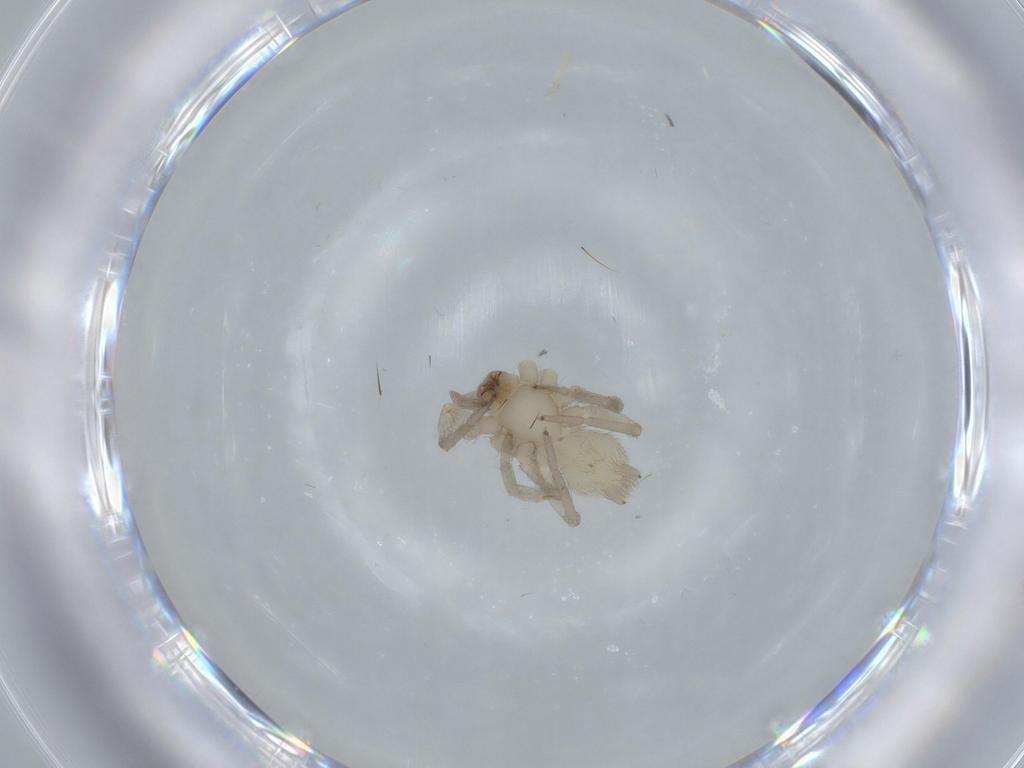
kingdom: Animalia
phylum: Arthropoda
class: Arachnida
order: Araneae
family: Gnaphosidae
